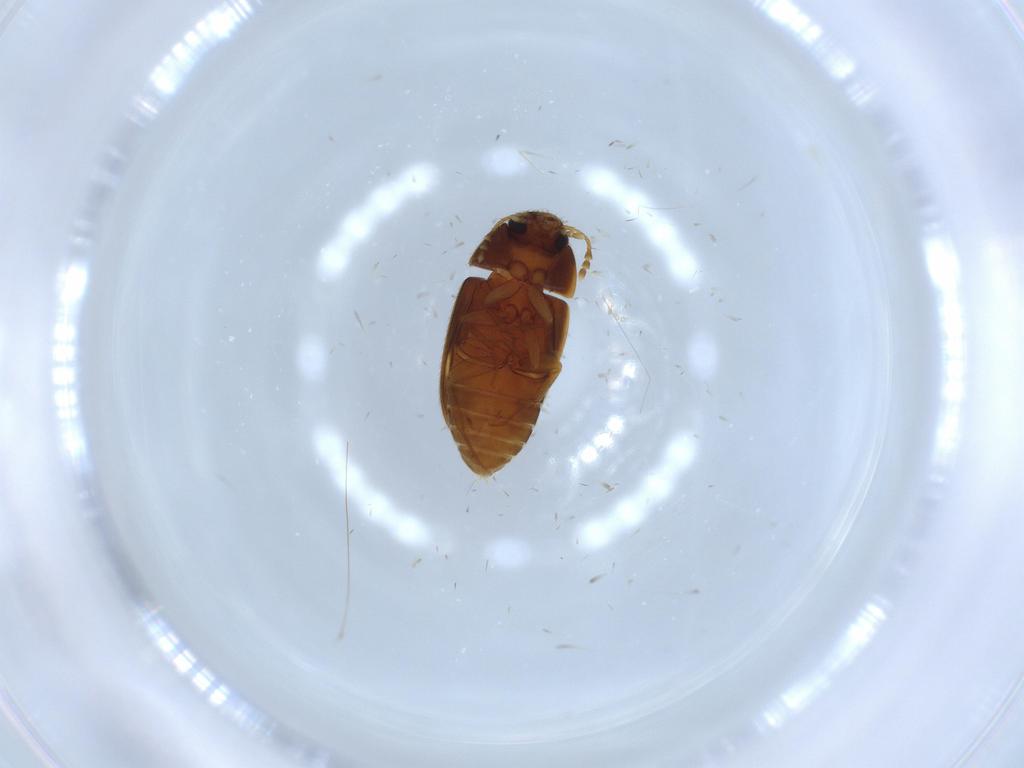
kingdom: Animalia
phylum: Arthropoda
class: Insecta
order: Coleoptera
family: Mycetophagidae
